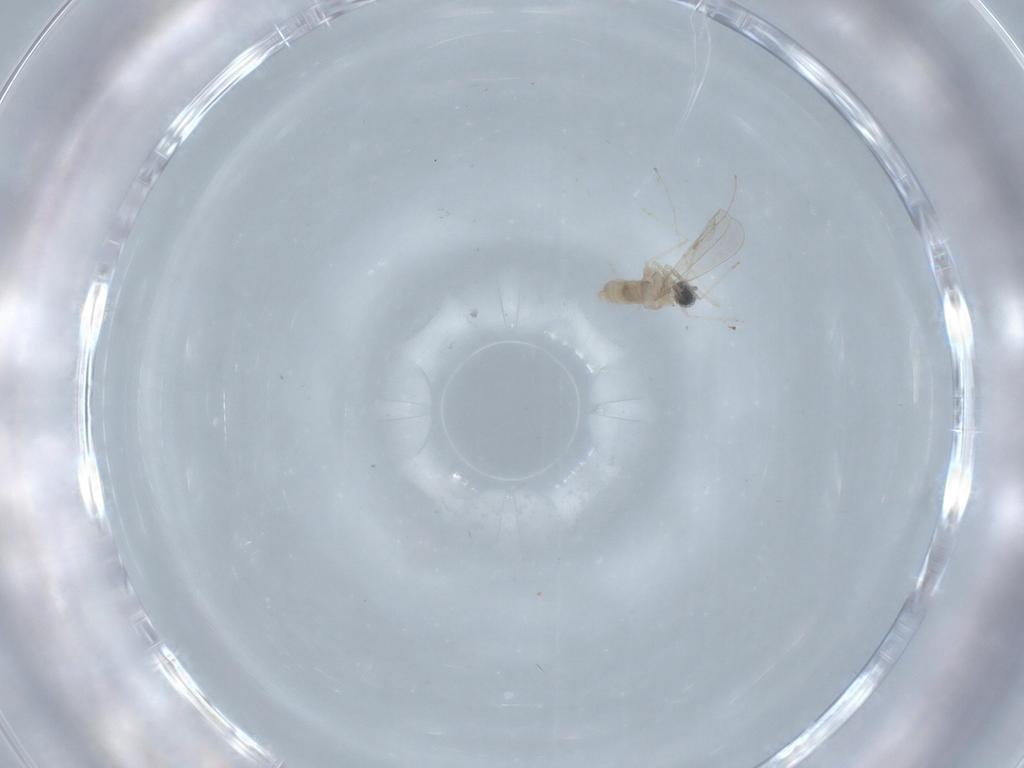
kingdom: Animalia
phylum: Arthropoda
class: Insecta
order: Diptera
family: Cecidomyiidae
